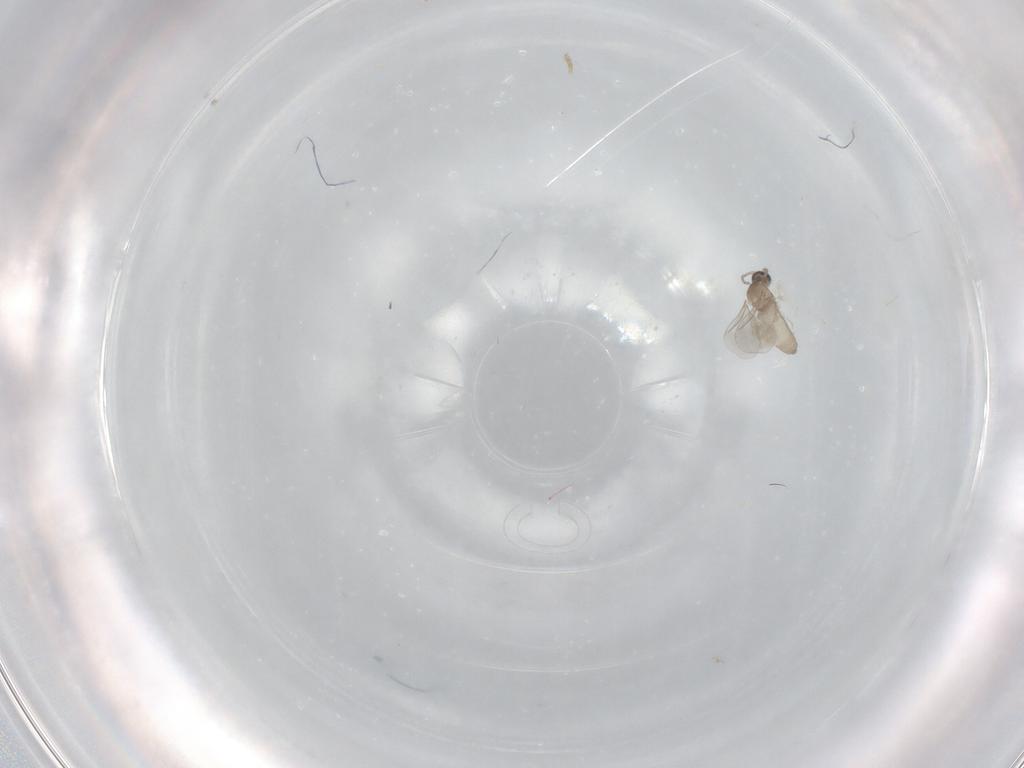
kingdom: Animalia
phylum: Arthropoda
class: Insecta
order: Diptera
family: Cecidomyiidae
